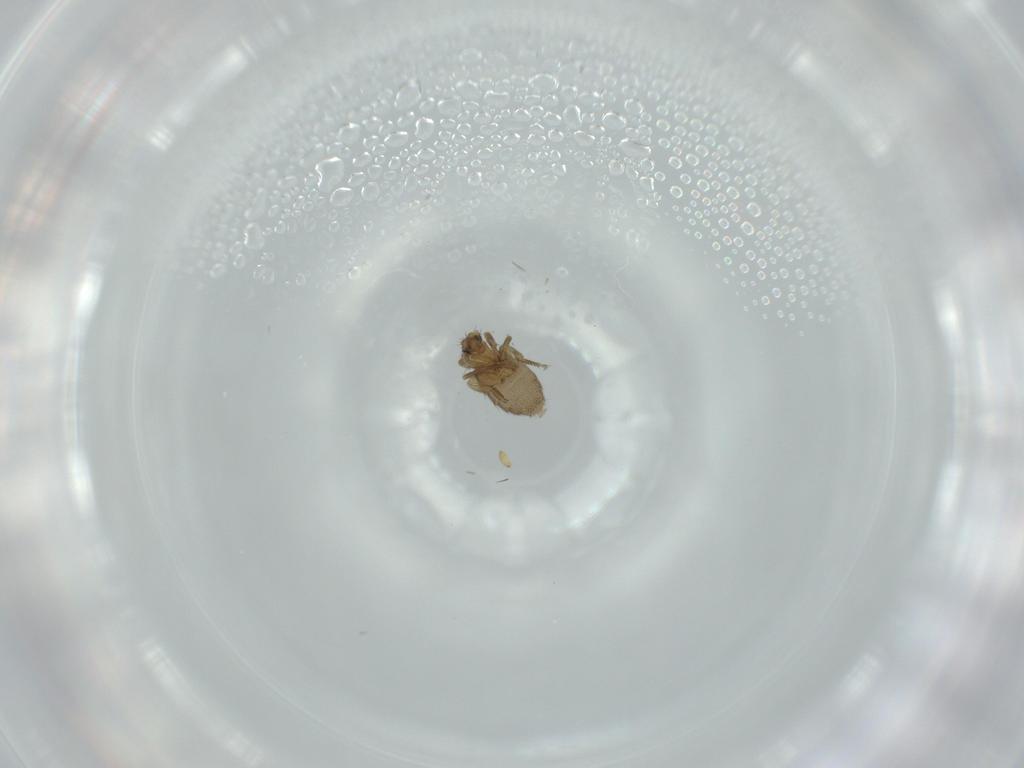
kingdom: Animalia
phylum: Arthropoda
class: Insecta
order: Diptera
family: Phoridae
